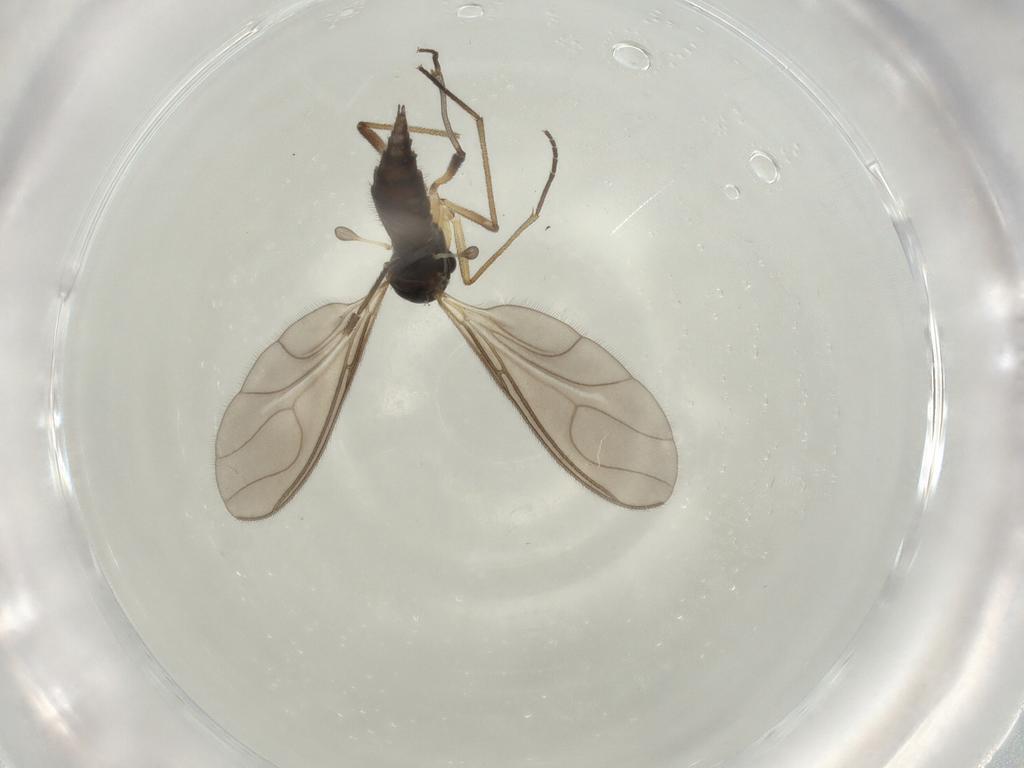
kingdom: Animalia
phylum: Arthropoda
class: Insecta
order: Diptera
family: Sciaridae
